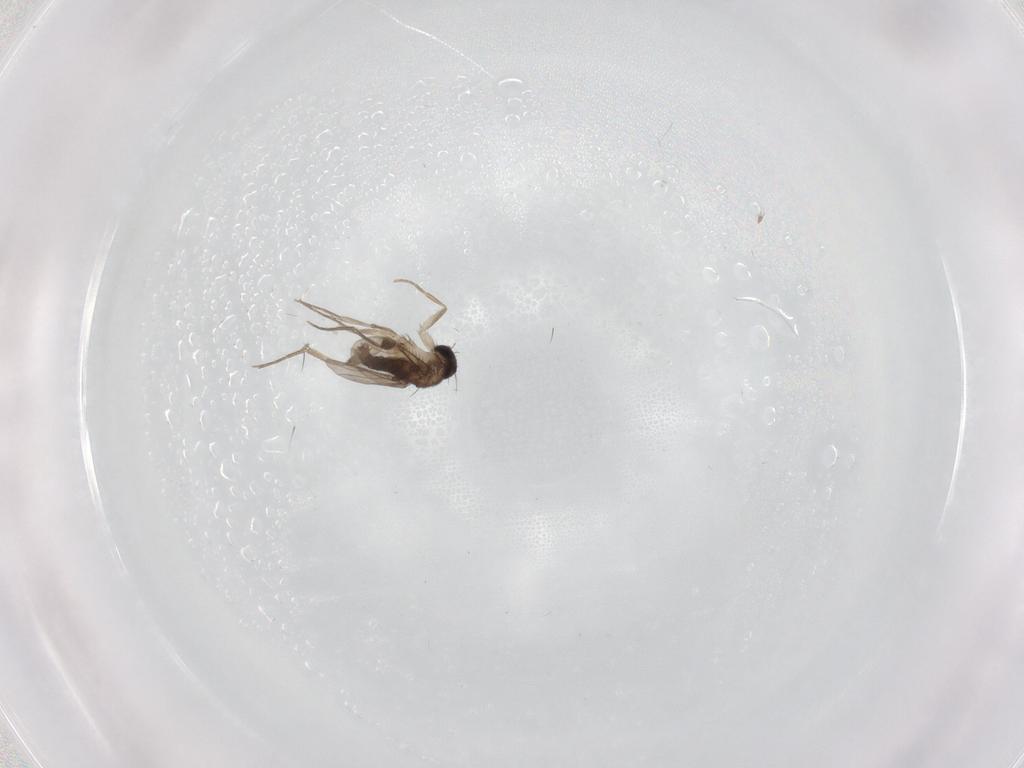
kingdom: Animalia
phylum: Arthropoda
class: Insecta
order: Diptera
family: Phoridae
